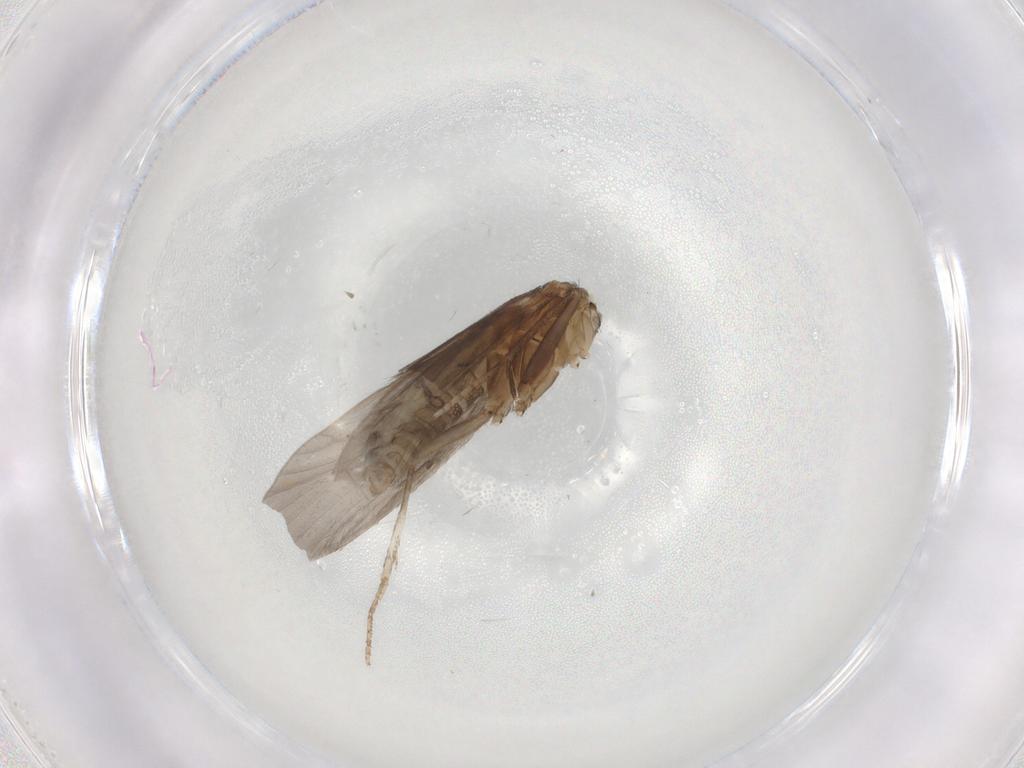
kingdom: Animalia
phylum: Arthropoda
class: Insecta
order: Trichoptera
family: Helicopsychidae
